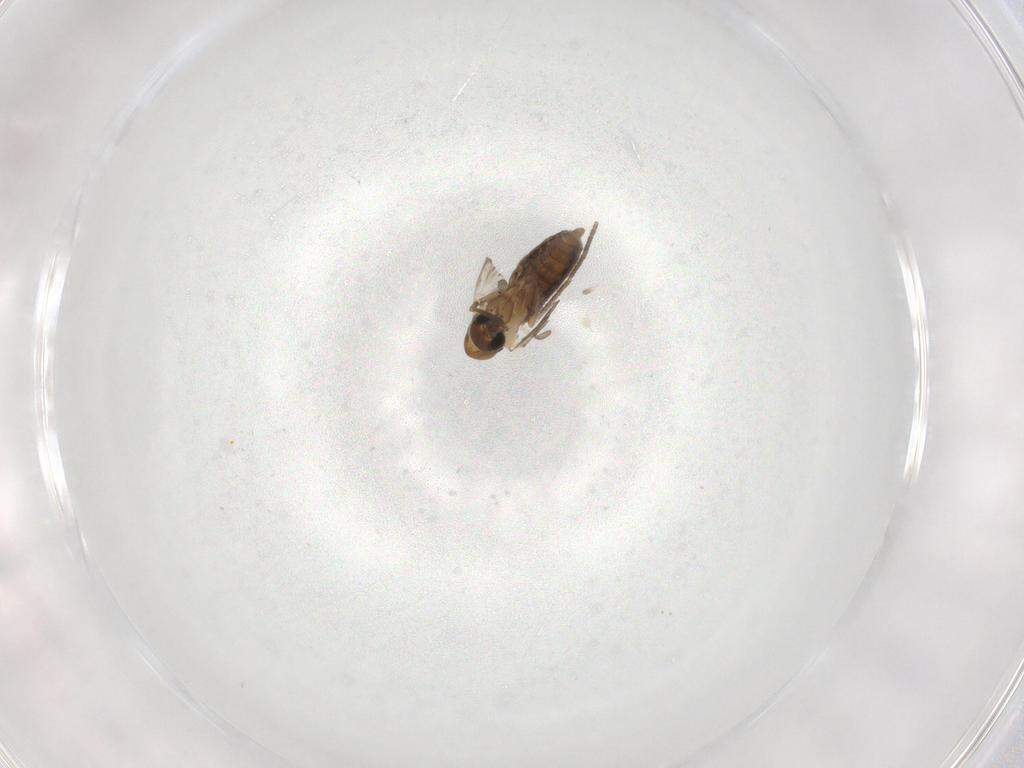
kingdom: Animalia
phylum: Arthropoda
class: Insecta
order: Diptera
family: Psychodidae
